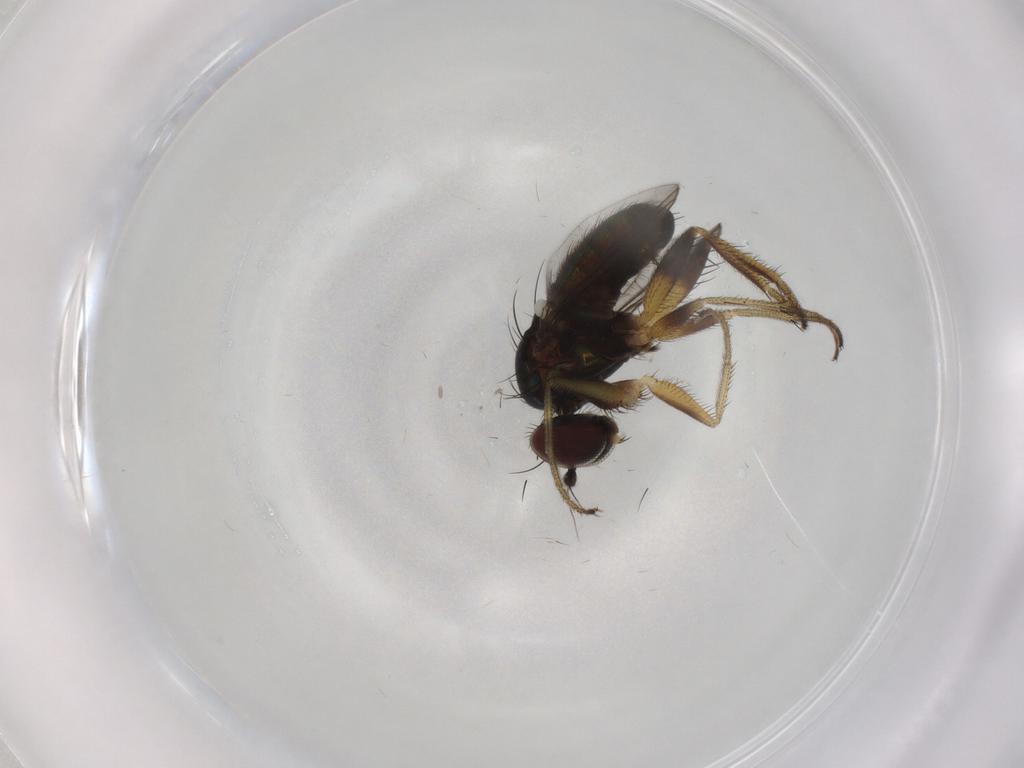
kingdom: Animalia
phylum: Arthropoda
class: Insecta
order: Diptera
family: Dolichopodidae
